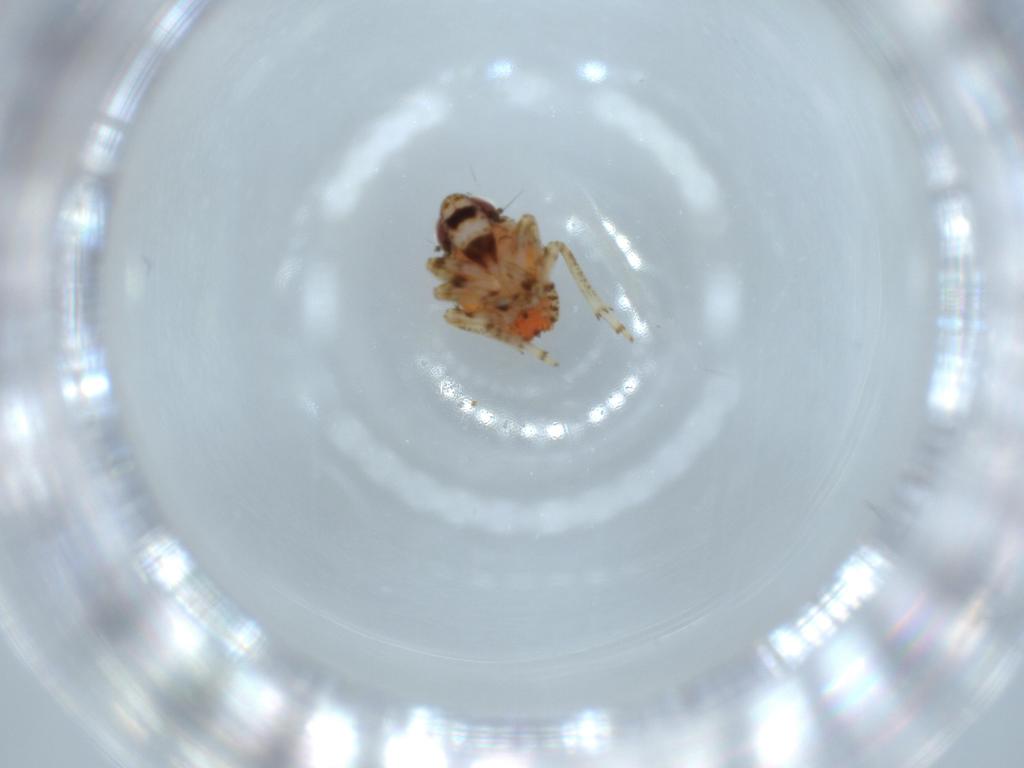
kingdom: Animalia
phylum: Arthropoda
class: Insecta
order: Hemiptera
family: Issidae
